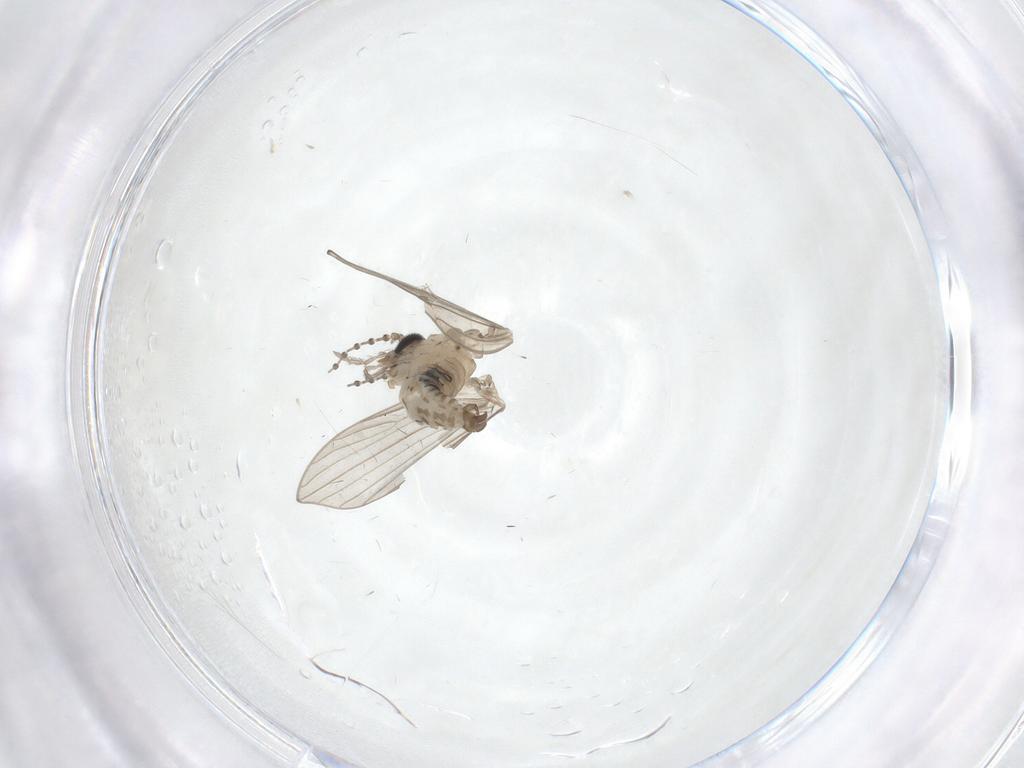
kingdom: Animalia
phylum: Arthropoda
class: Insecta
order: Diptera
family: Psychodidae
